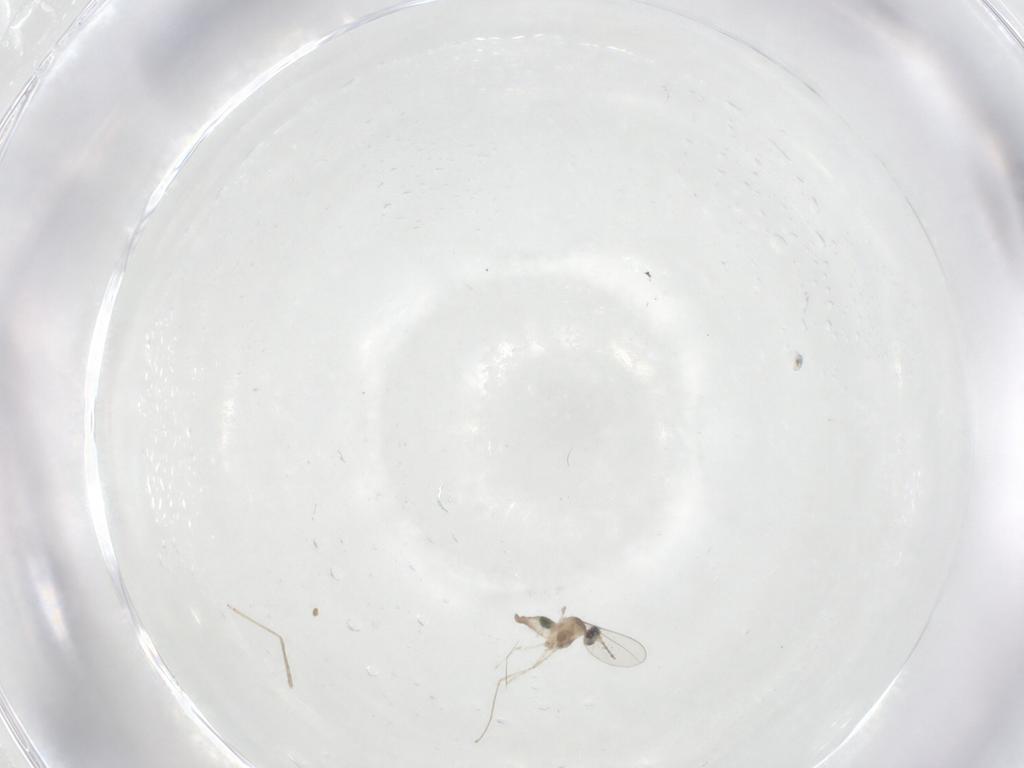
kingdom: Animalia
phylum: Arthropoda
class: Insecta
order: Diptera
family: Cecidomyiidae
